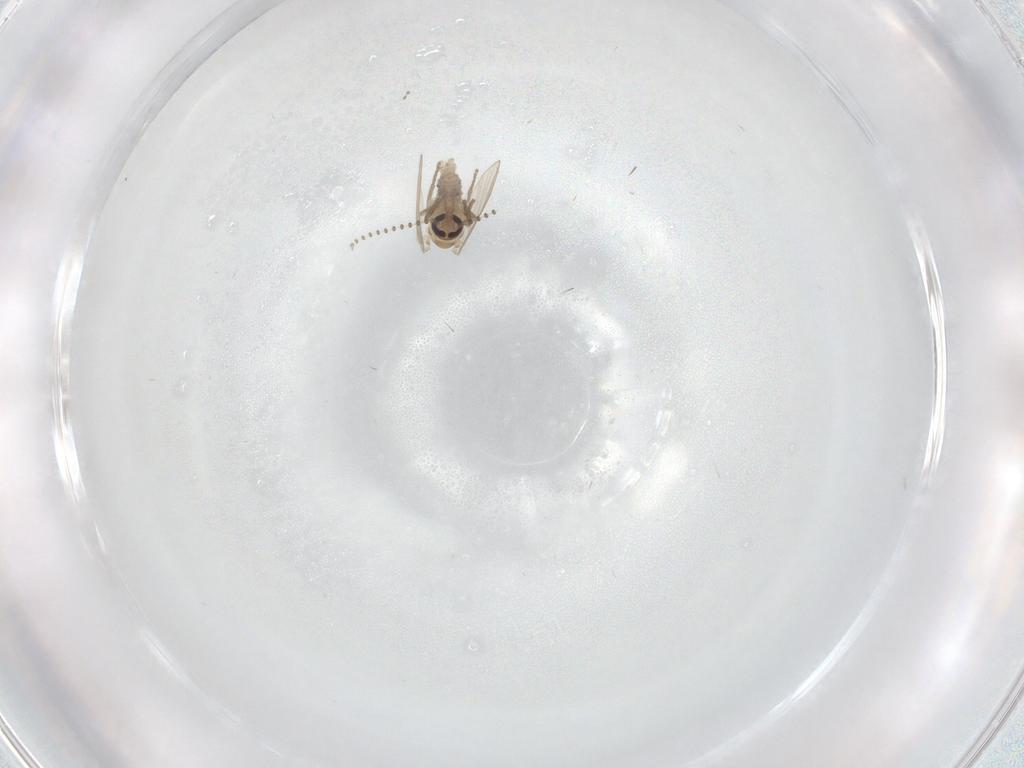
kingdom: Animalia
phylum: Arthropoda
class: Insecta
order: Diptera
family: Psychodidae
